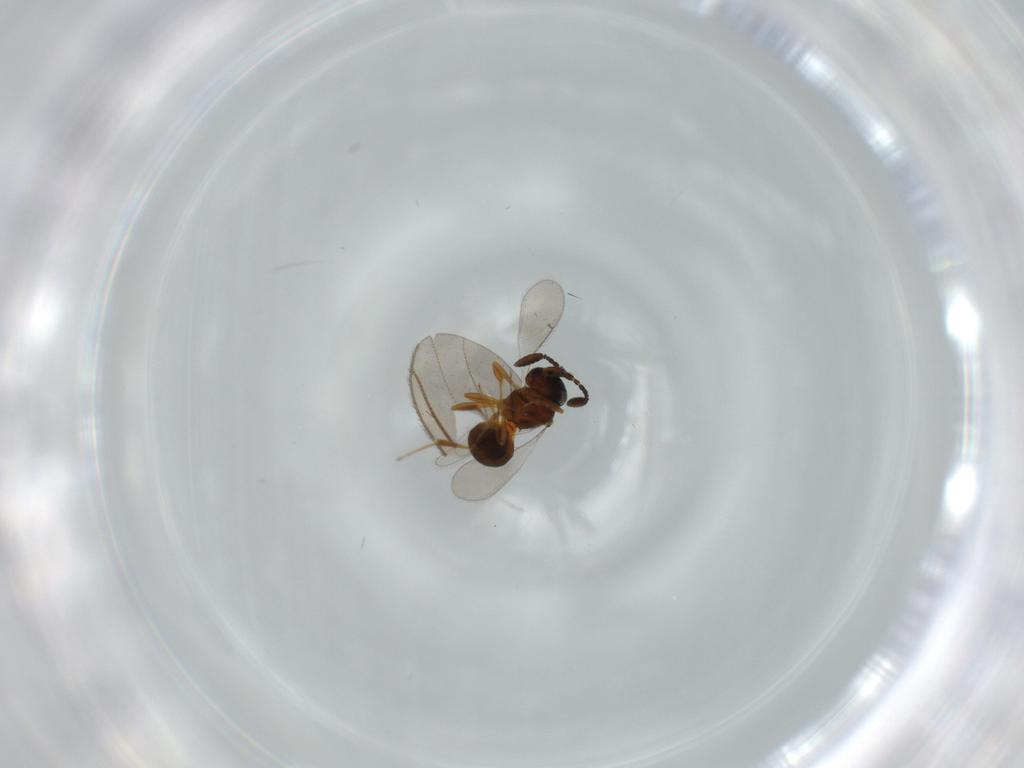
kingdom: Animalia
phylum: Arthropoda
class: Insecta
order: Hymenoptera
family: Scelionidae
